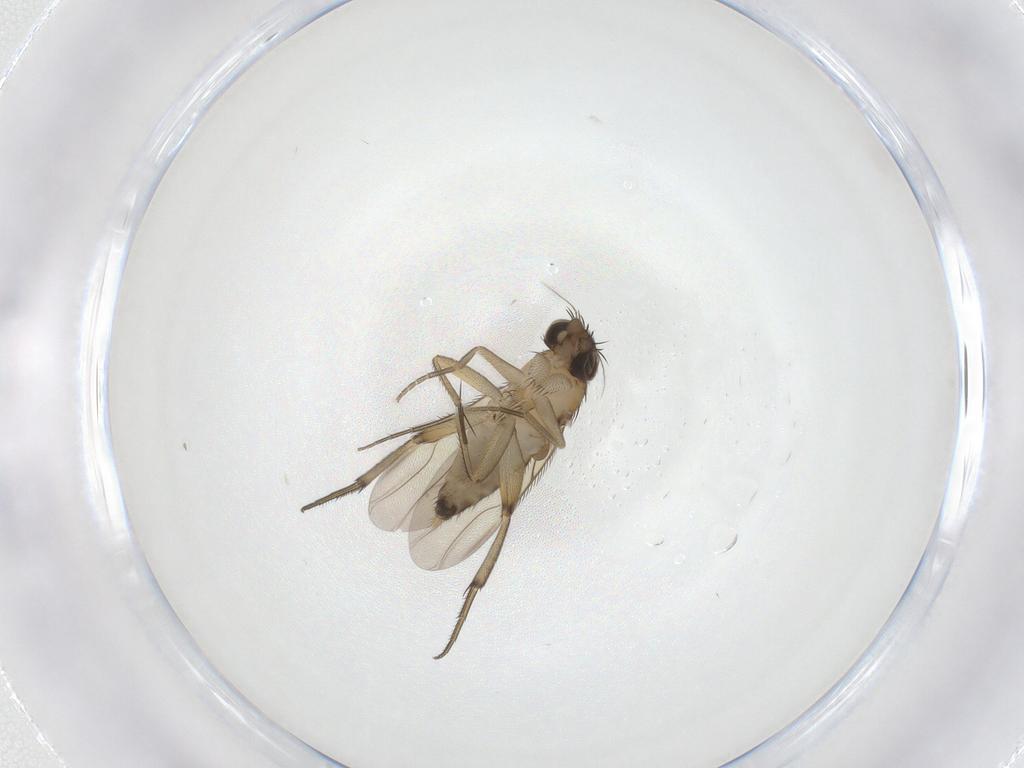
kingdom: Animalia
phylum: Arthropoda
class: Insecta
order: Diptera
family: Phoridae
